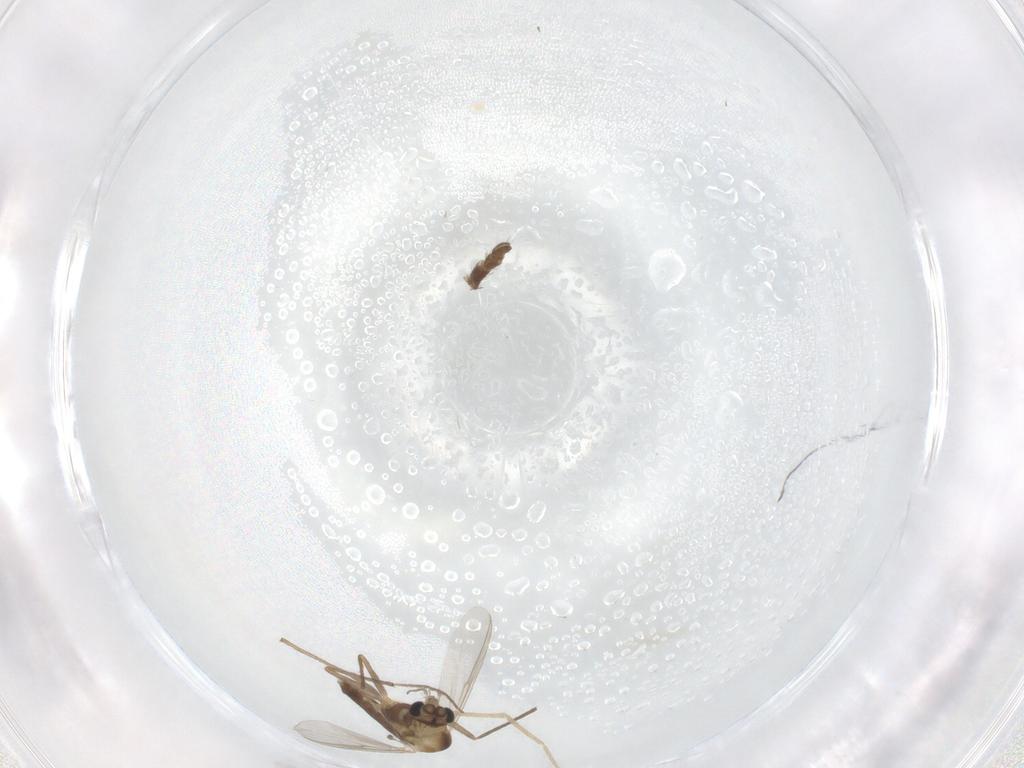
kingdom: Animalia
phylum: Arthropoda
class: Insecta
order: Diptera
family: Chironomidae
